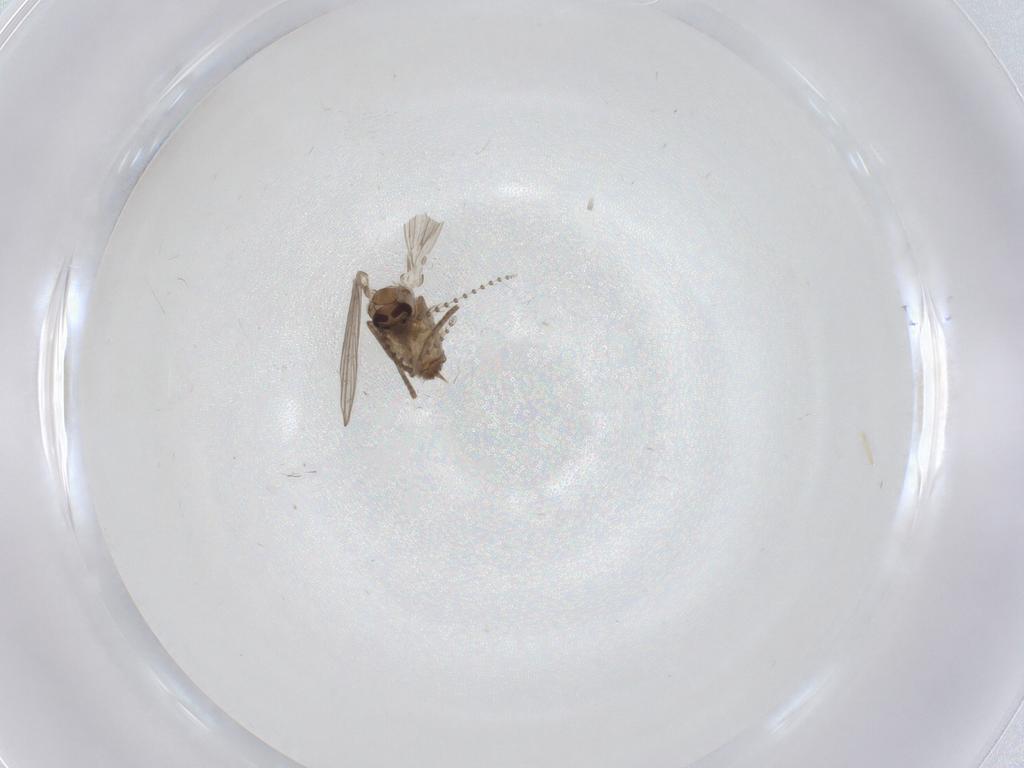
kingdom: Animalia
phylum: Arthropoda
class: Insecta
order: Diptera
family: Psychodidae
